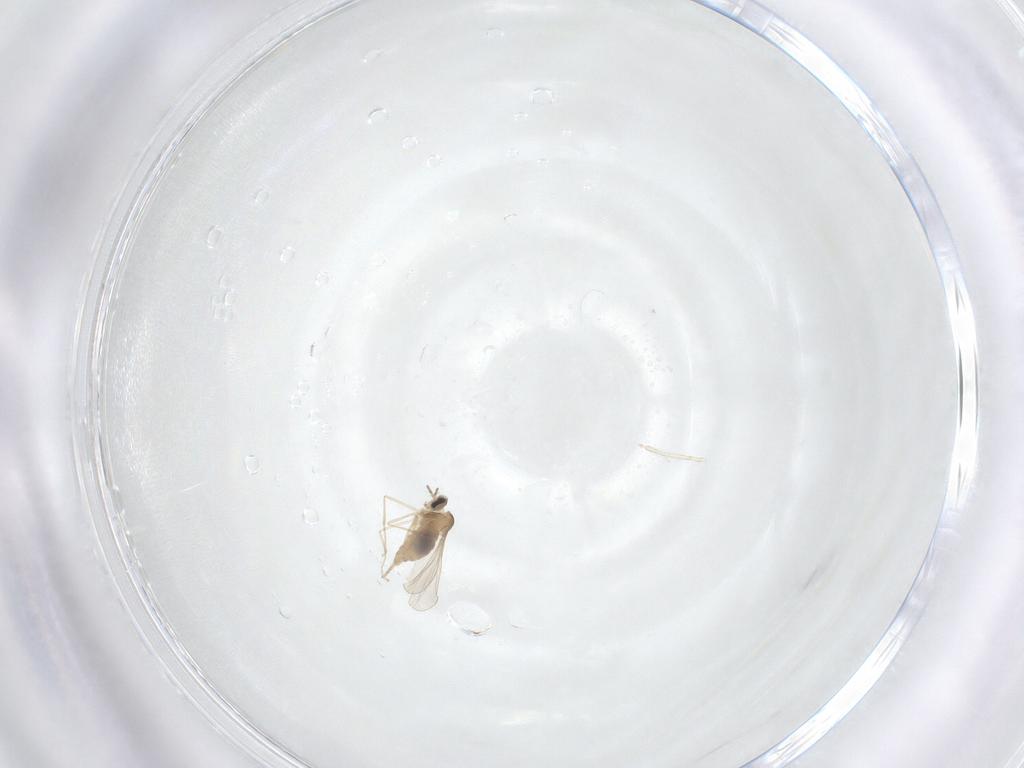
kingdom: Animalia
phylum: Arthropoda
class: Insecta
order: Diptera
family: Cecidomyiidae
